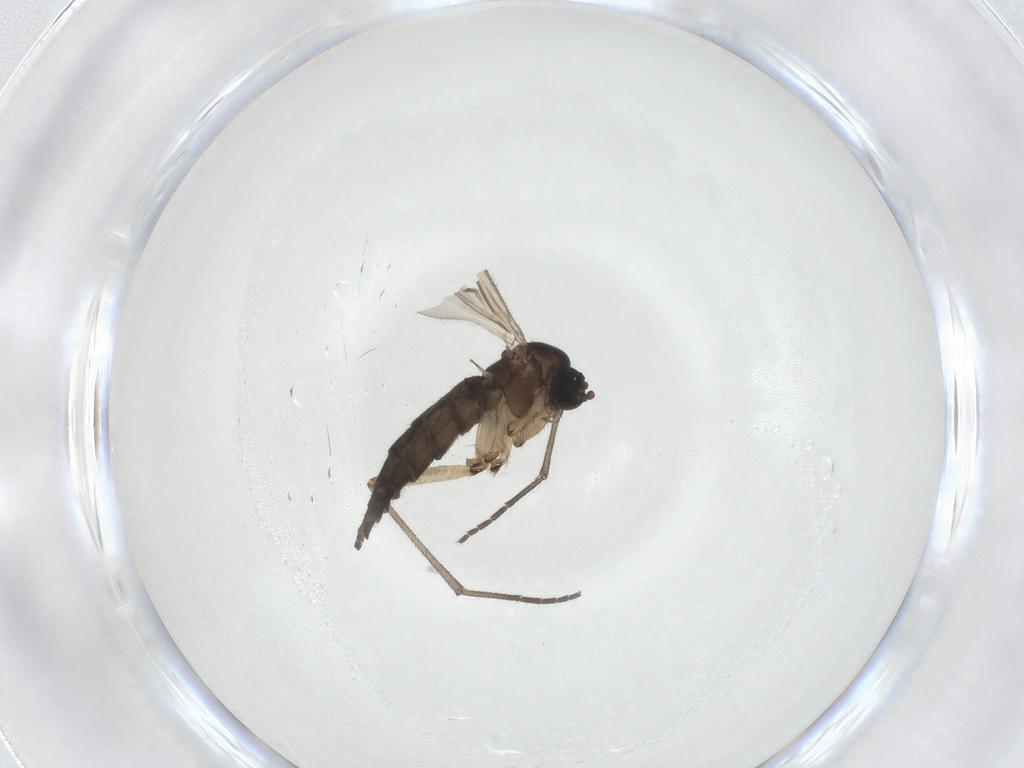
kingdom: Animalia
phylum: Arthropoda
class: Insecta
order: Diptera
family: Sciaridae
